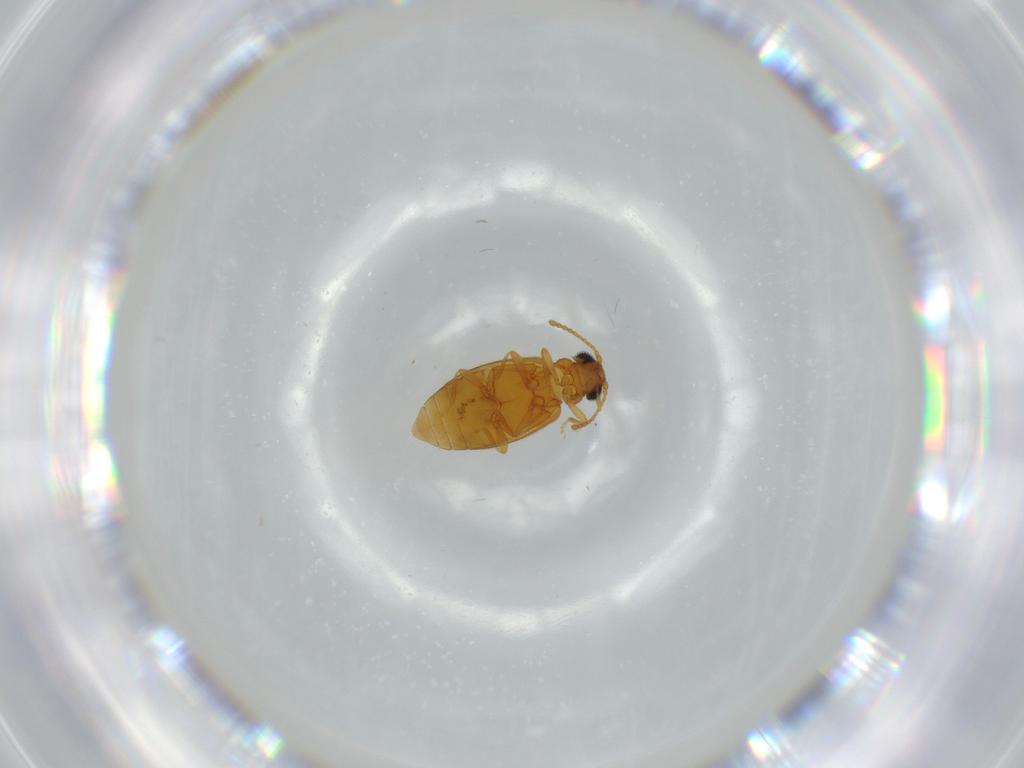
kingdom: Animalia
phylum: Arthropoda
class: Insecta
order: Coleoptera
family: Aderidae
